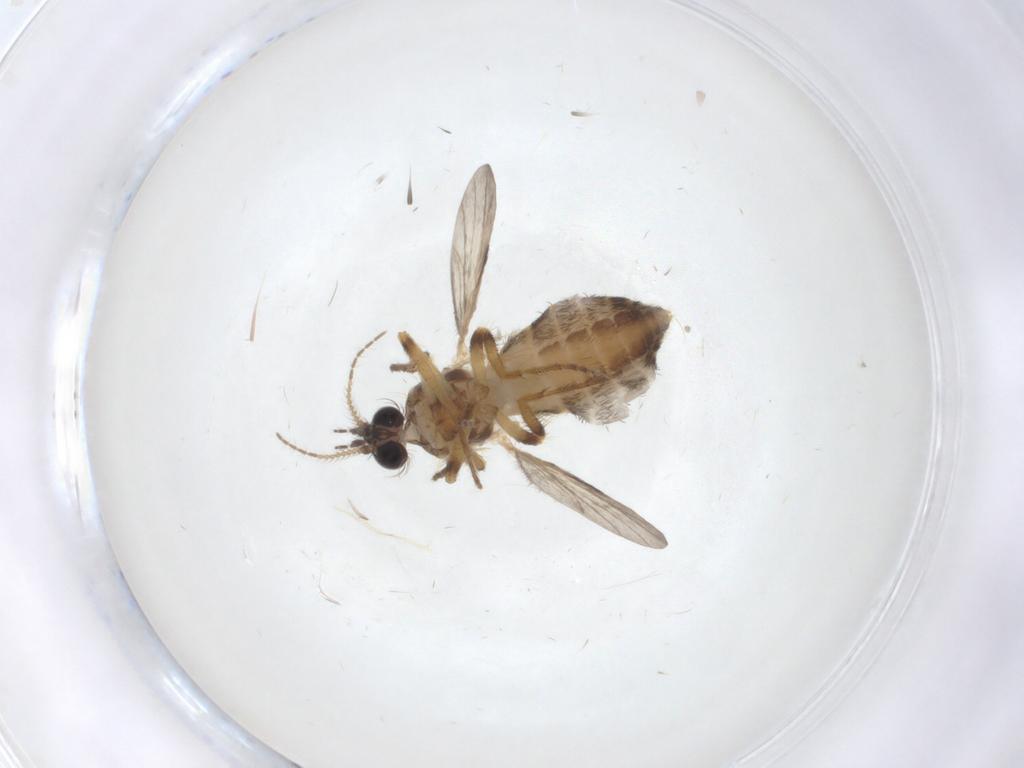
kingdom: Animalia
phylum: Arthropoda
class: Insecta
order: Diptera
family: Ceratopogonidae
